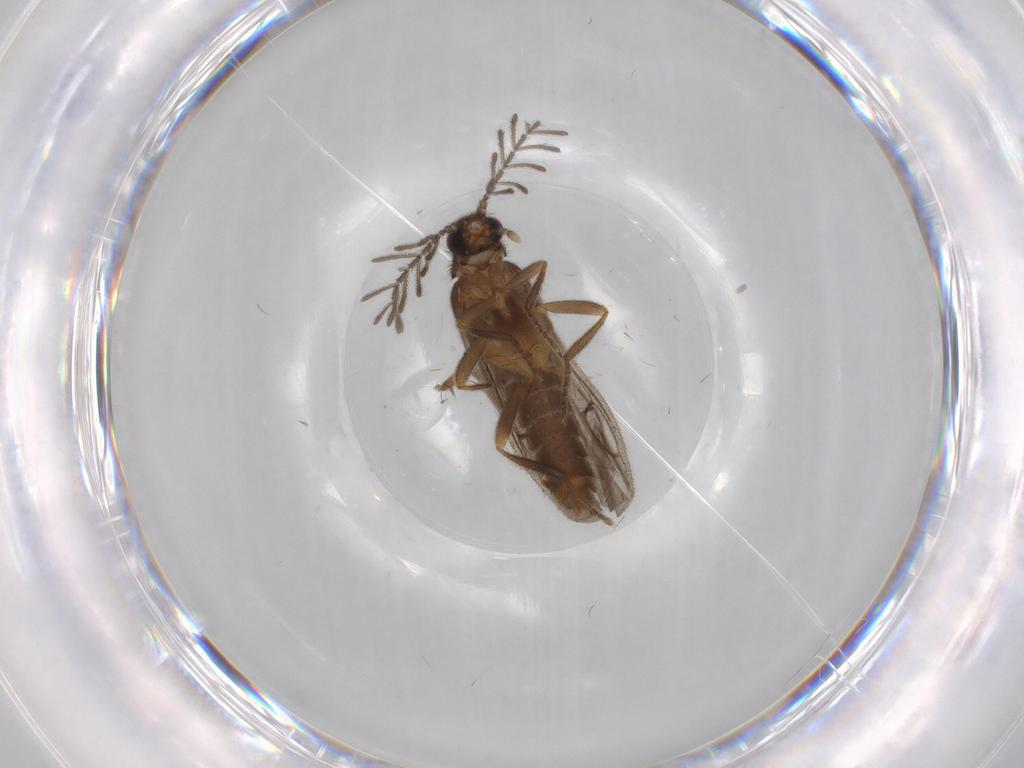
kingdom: Animalia
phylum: Arthropoda
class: Insecta
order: Coleoptera
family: Staphylinidae
